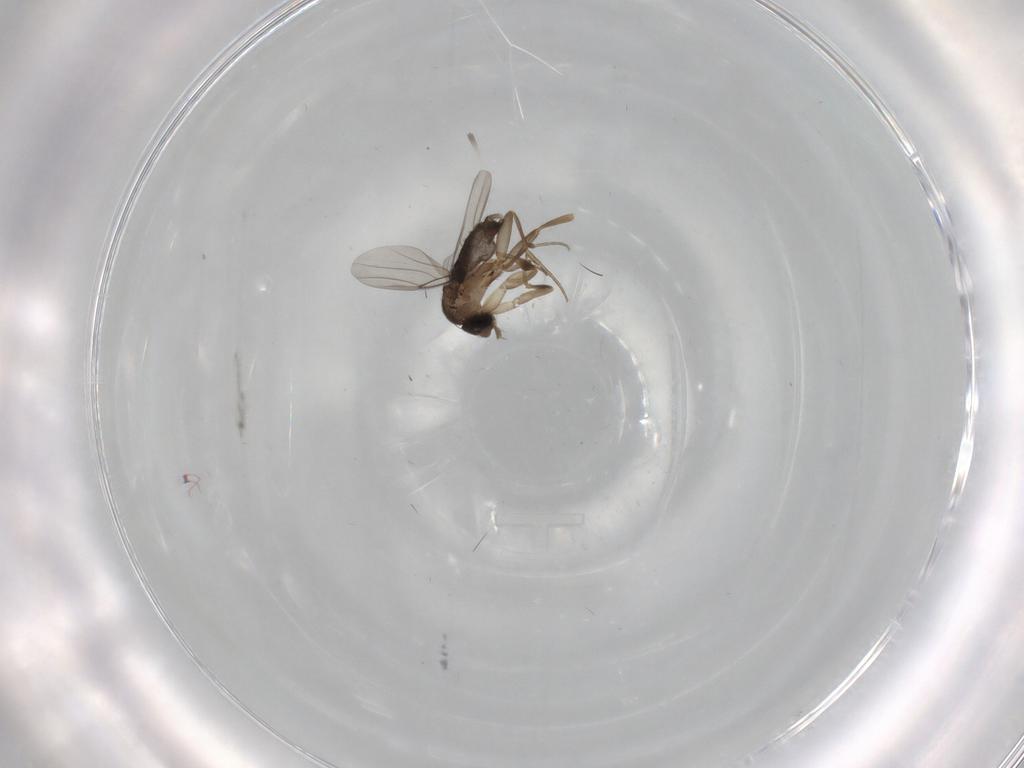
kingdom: Animalia
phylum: Arthropoda
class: Insecta
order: Diptera
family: Phoridae
